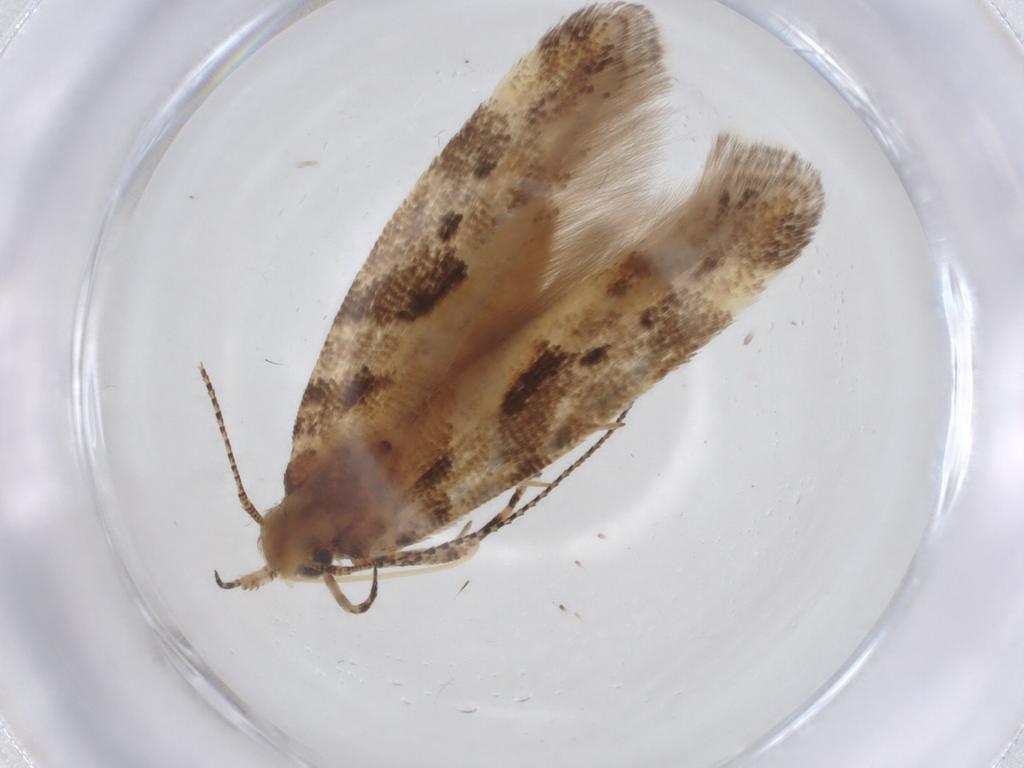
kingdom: Animalia
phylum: Arthropoda
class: Insecta
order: Lepidoptera
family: Gelechiidae
